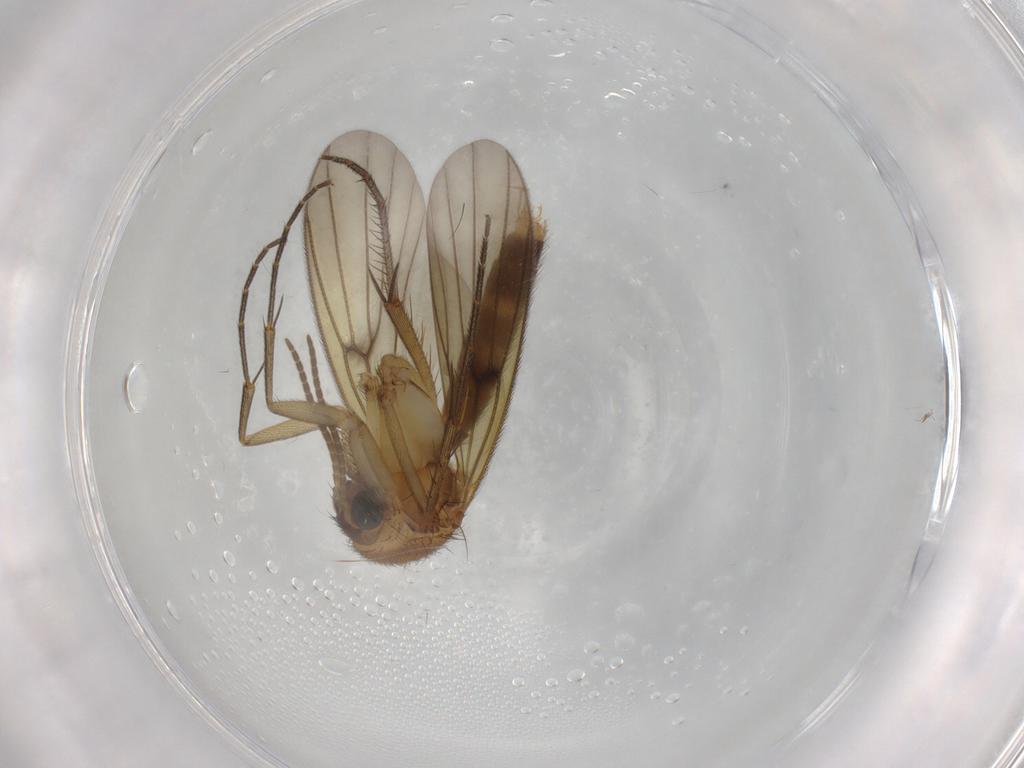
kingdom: Animalia
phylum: Arthropoda
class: Insecta
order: Diptera
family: Mycetophilidae
